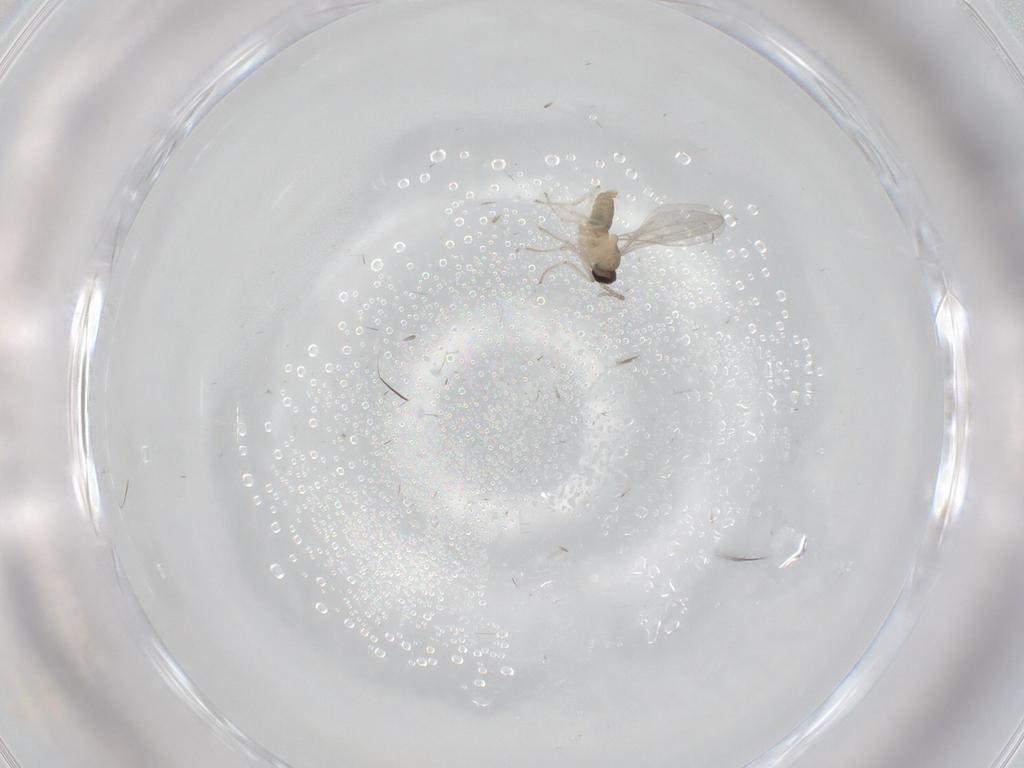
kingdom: Animalia
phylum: Arthropoda
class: Insecta
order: Diptera
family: Cecidomyiidae
